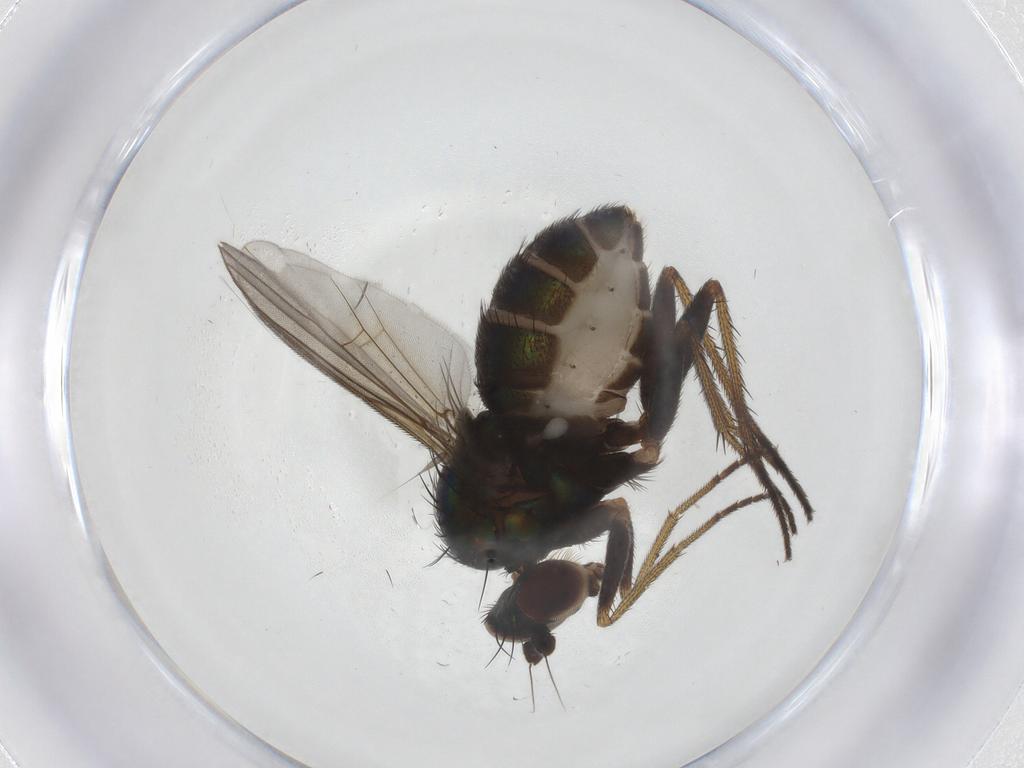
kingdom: Animalia
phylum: Arthropoda
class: Insecta
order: Diptera
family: Dolichopodidae
